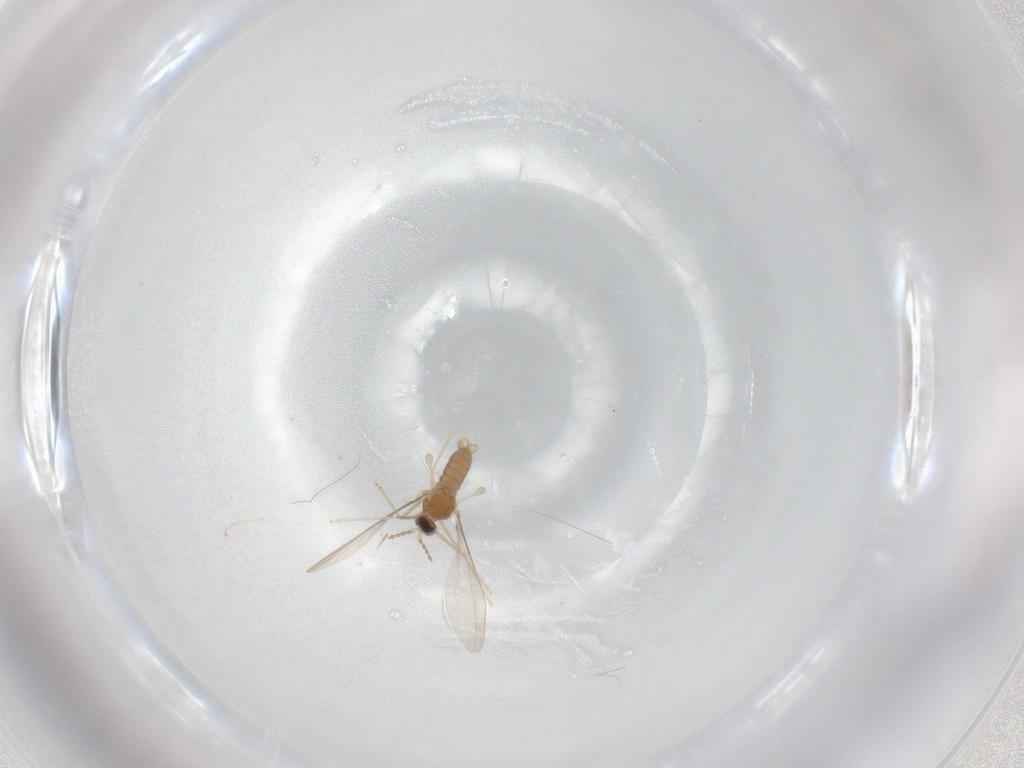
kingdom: Animalia
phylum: Arthropoda
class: Insecta
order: Diptera
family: Cecidomyiidae
